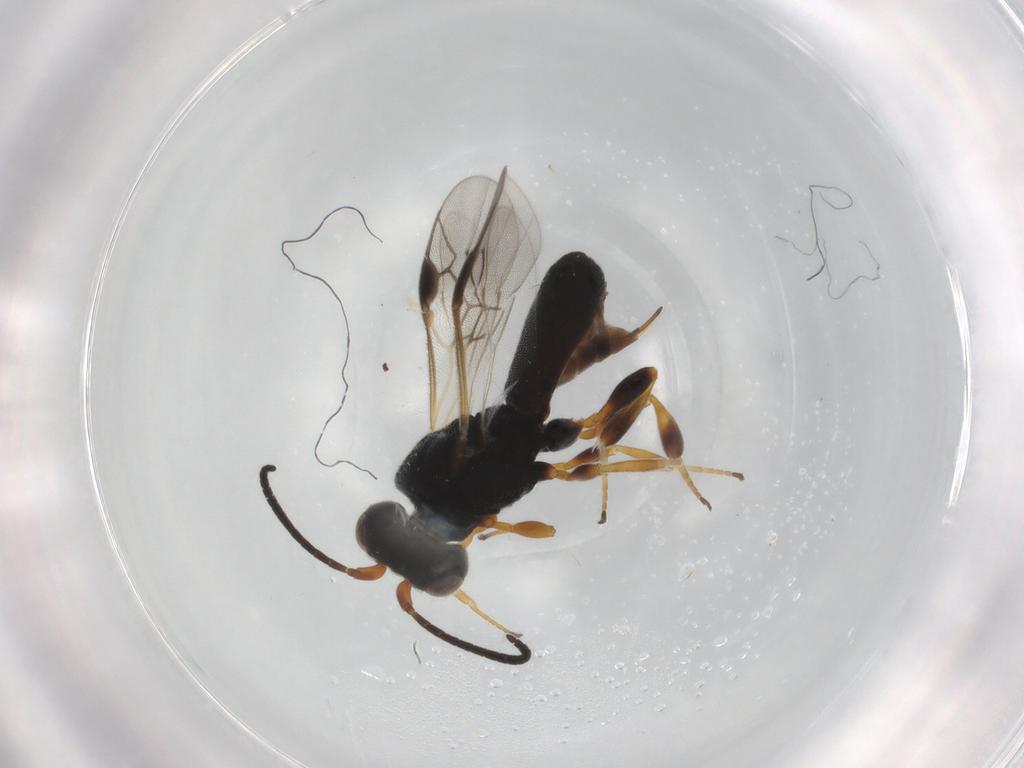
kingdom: Animalia
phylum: Arthropoda
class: Insecta
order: Hymenoptera
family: Braconidae
